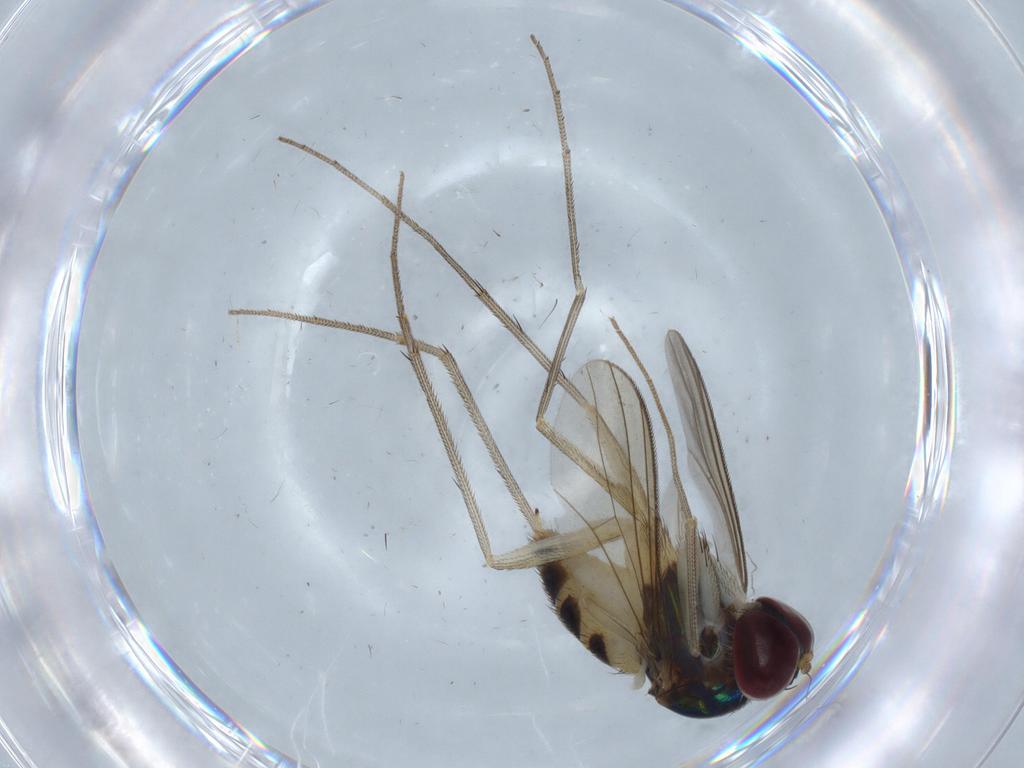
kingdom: Animalia
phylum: Arthropoda
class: Insecta
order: Diptera
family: Dolichopodidae
